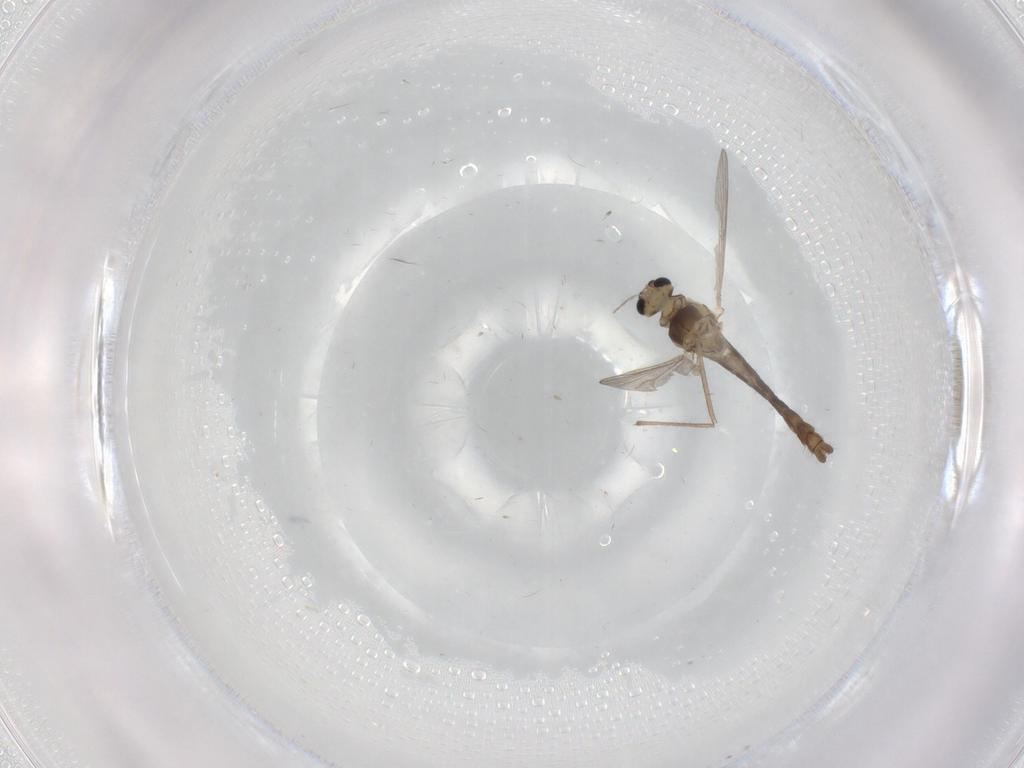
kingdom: Animalia
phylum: Arthropoda
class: Insecta
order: Diptera
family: Chironomidae
